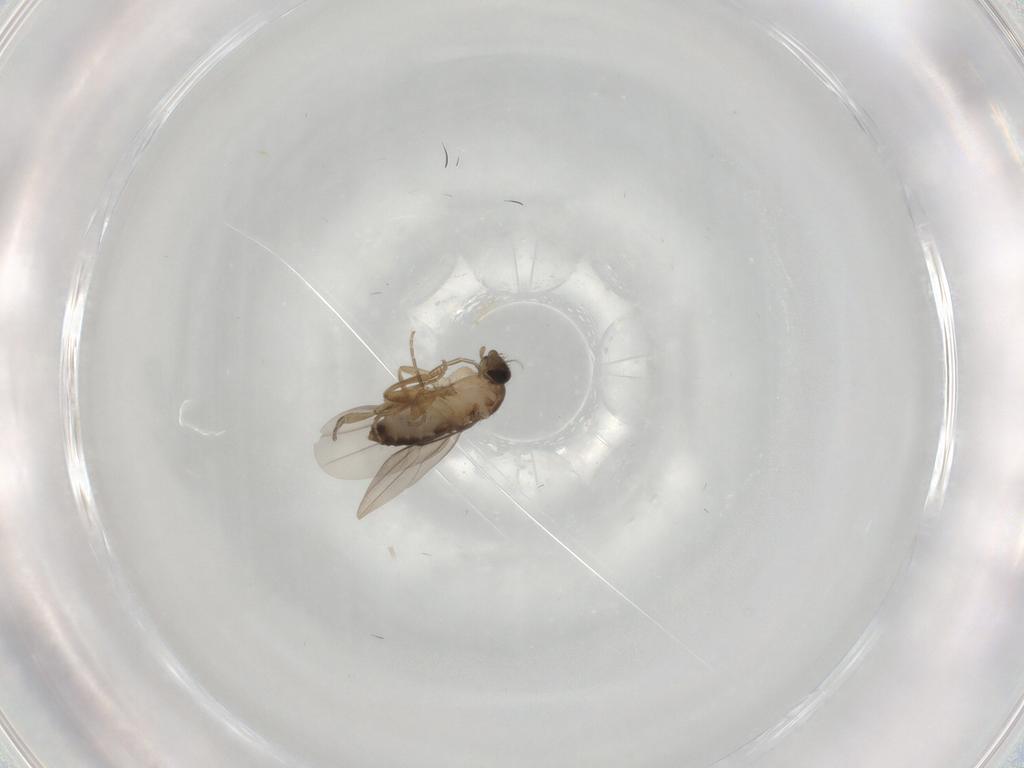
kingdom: Animalia
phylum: Arthropoda
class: Insecta
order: Diptera
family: Phoridae
